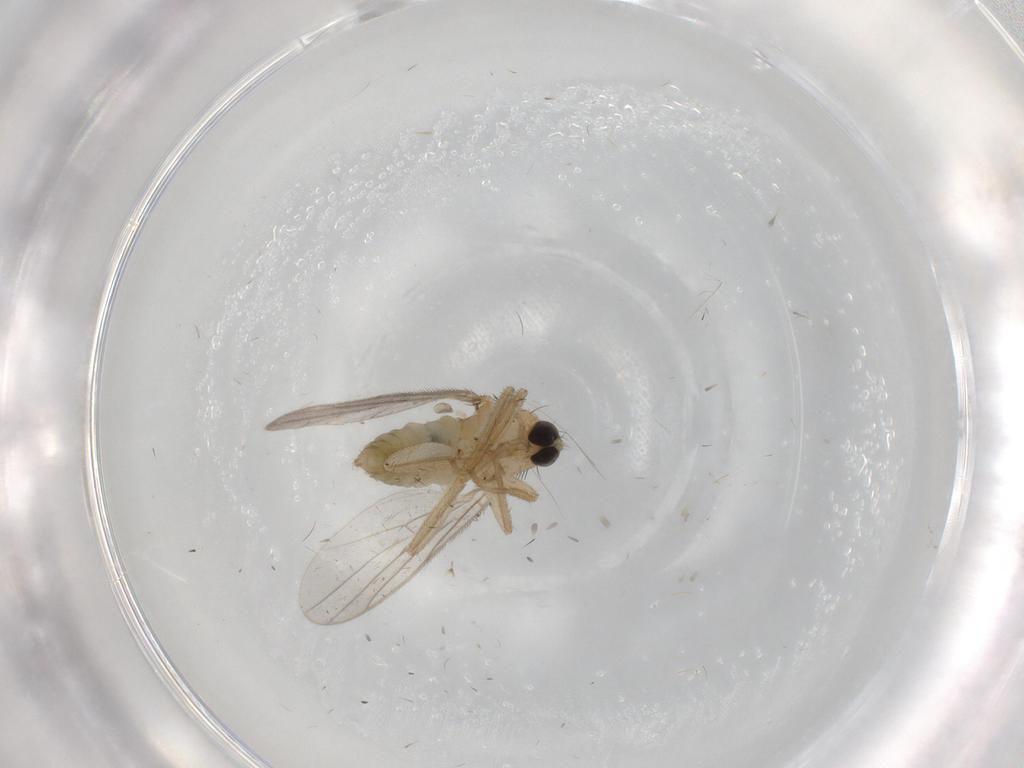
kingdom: Animalia
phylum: Arthropoda
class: Insecta
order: Diptera
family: Hybotidae
